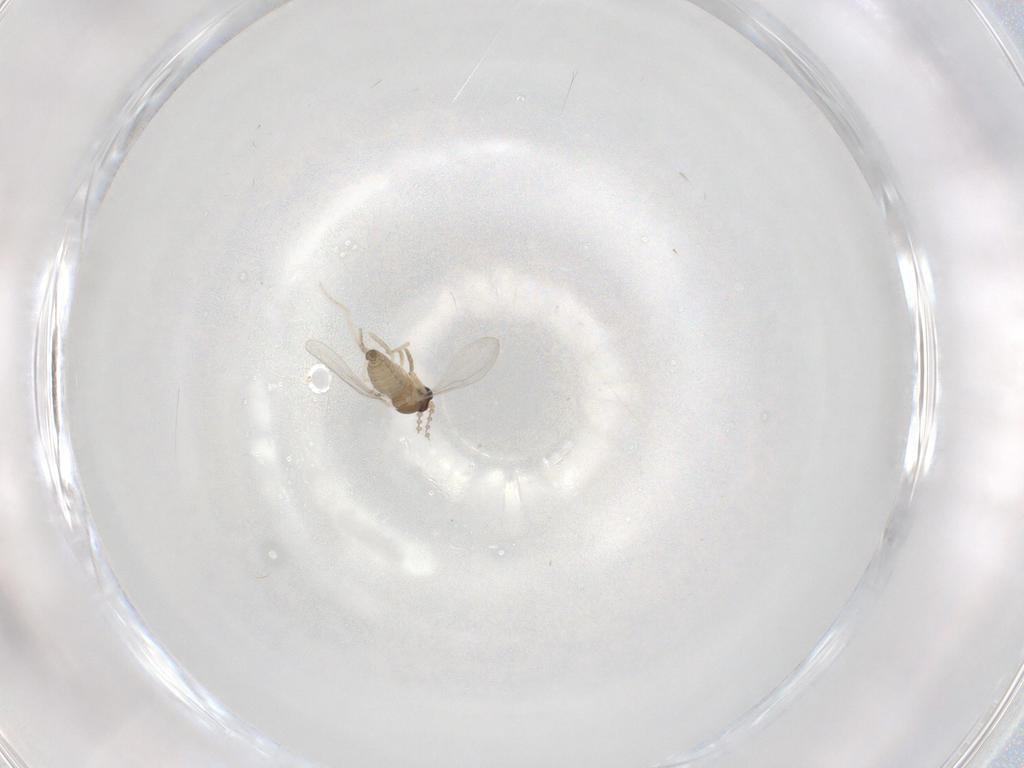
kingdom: Animalia
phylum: Arthropoda
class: Insecta
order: Diptera
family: Cecidomyiidae
